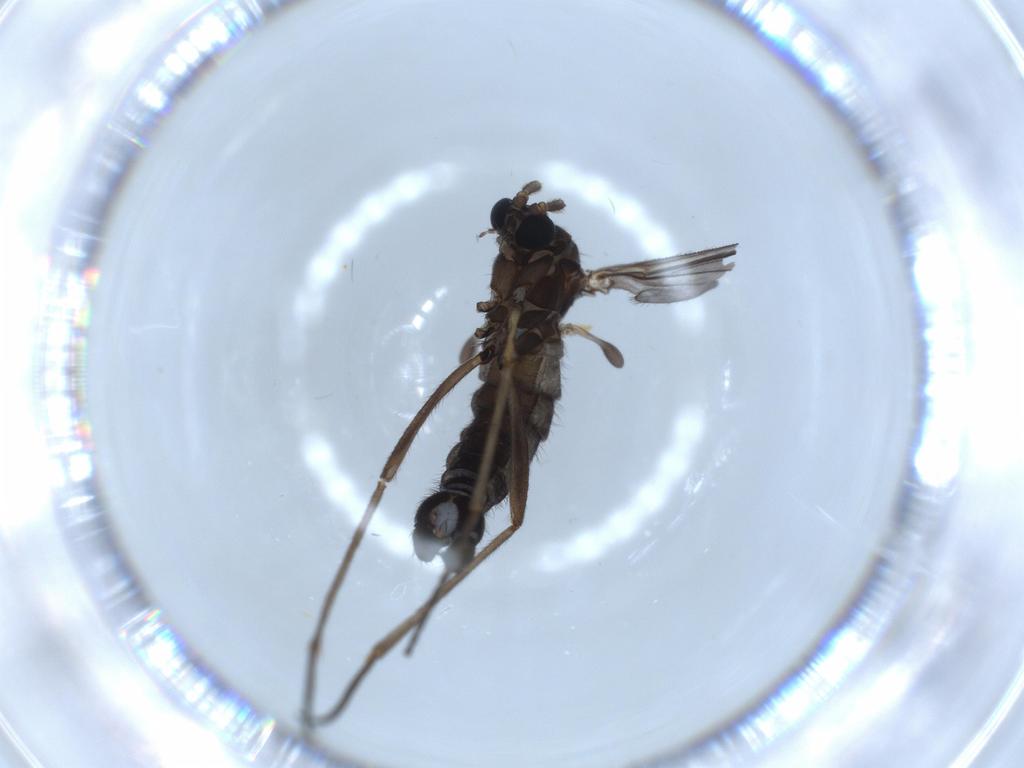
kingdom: Animalia
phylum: Arthropoda
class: Insecta
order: Diptera
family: Sciaridae
